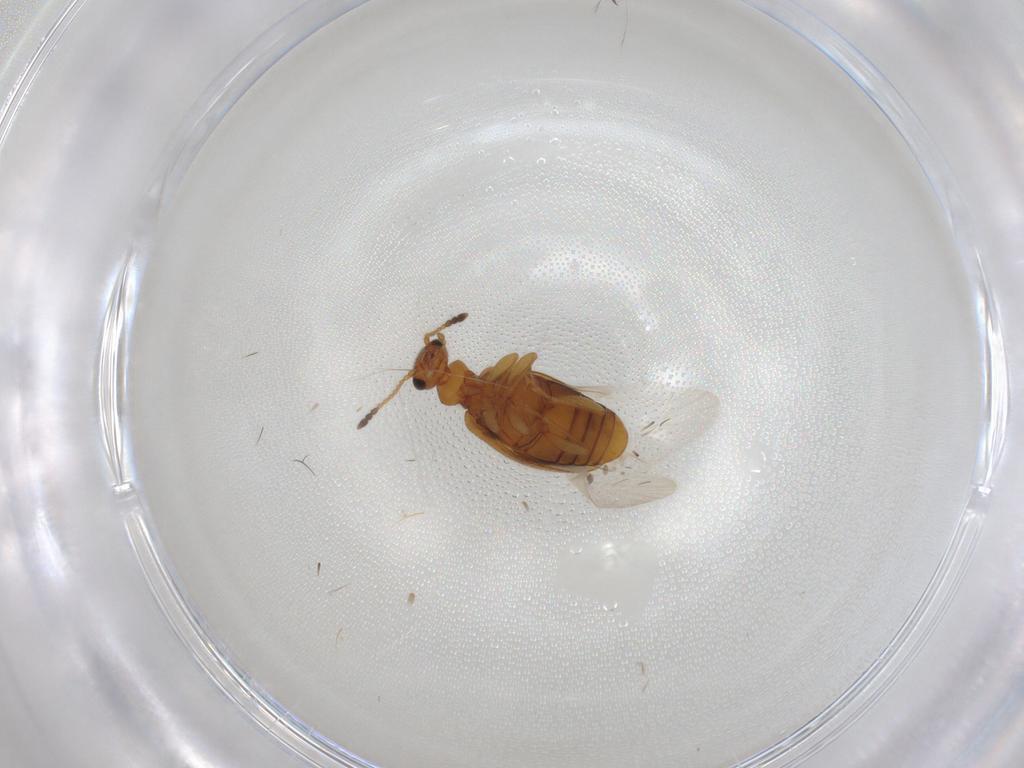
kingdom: Animalia
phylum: Arthropoda
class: Insecta
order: Coleoptera
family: Anthicidae
